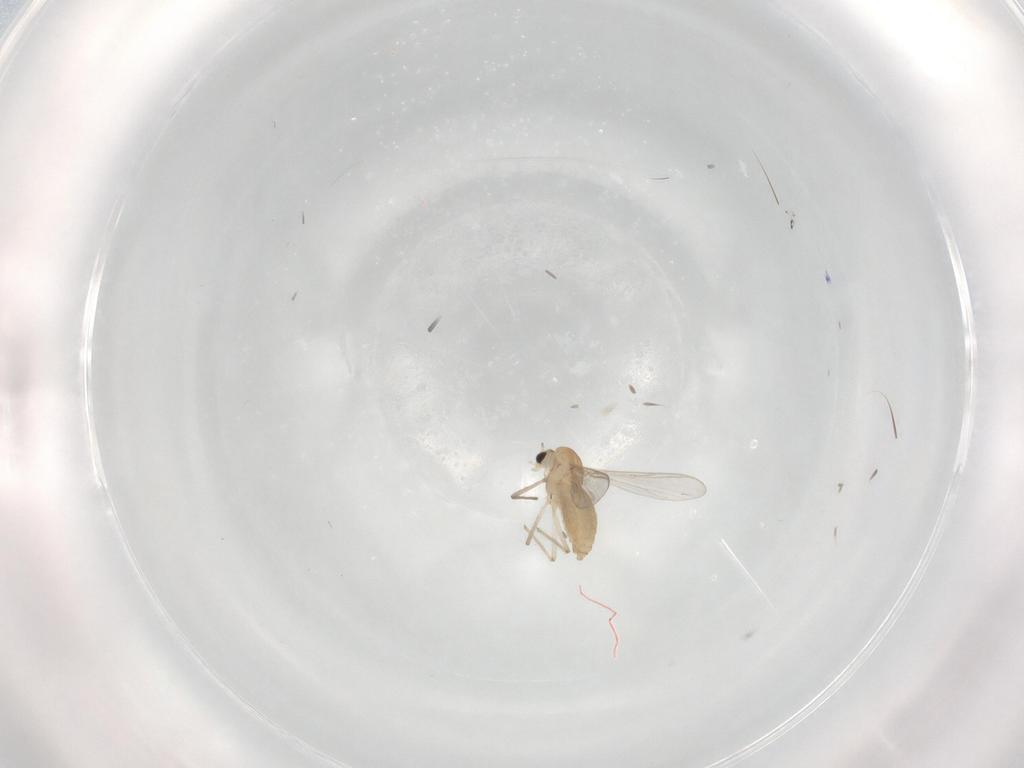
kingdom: Animalia
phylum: Arthropoda
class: Insecta
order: Diptera
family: Chironomidae
